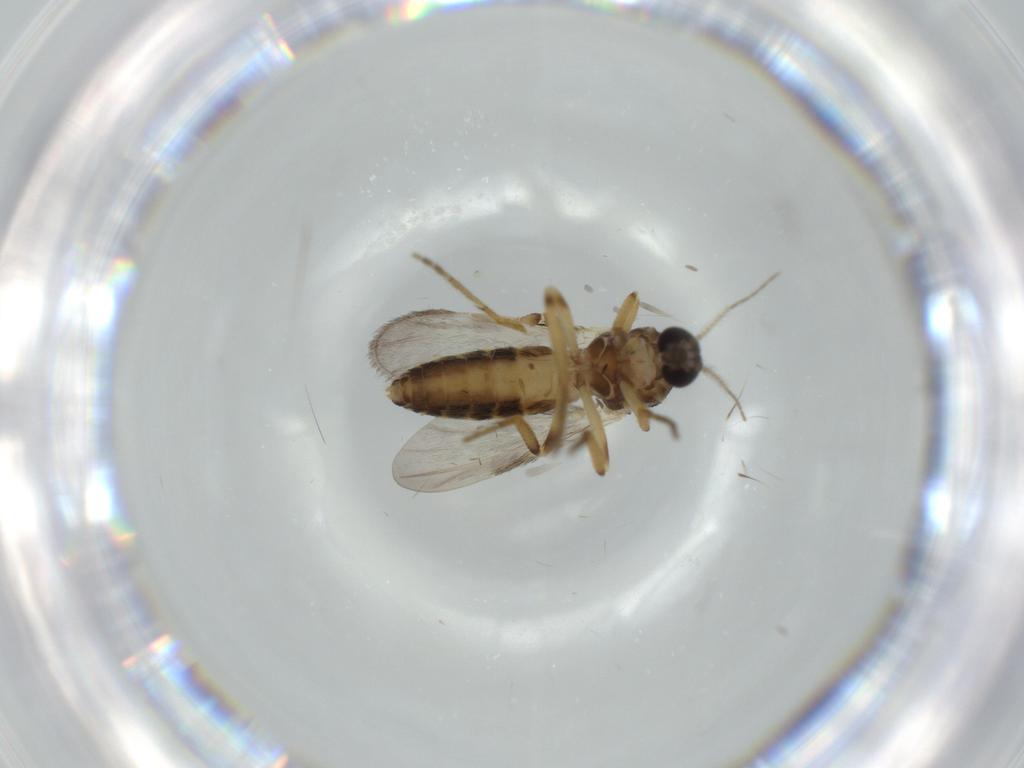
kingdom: Animalia
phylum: Arthropoda
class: Insecta
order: Diptera
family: Ceratopogonidae
